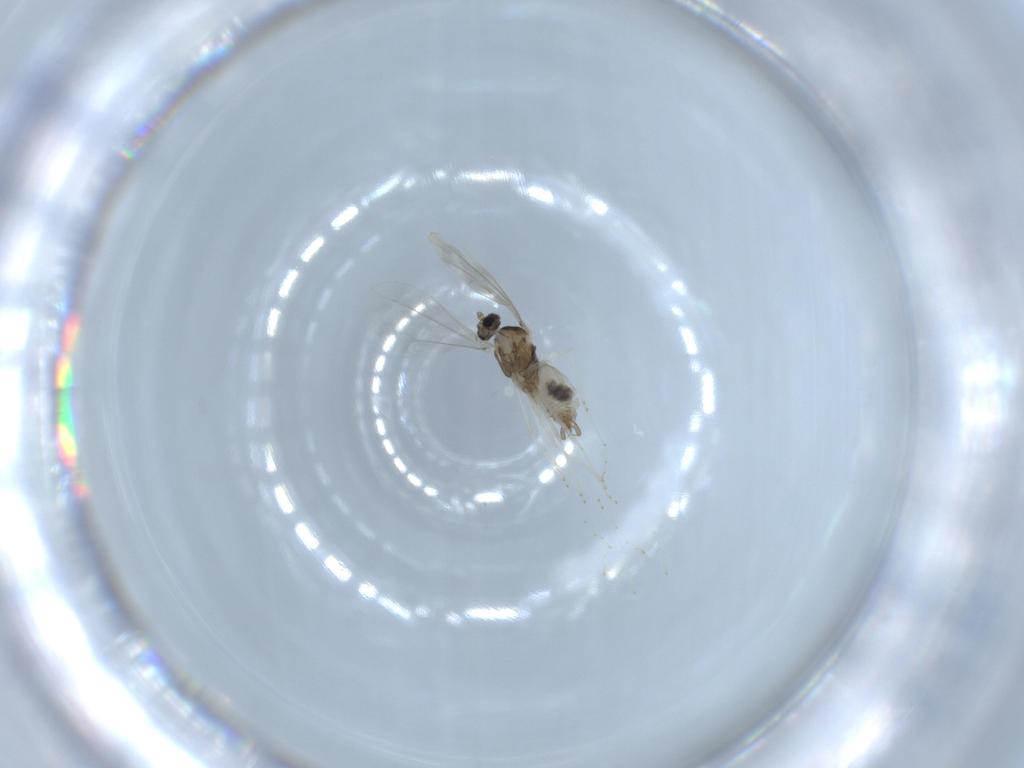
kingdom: Animalia
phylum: Arthropoda
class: Insecta
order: Diptera
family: Cecidomyiidae
